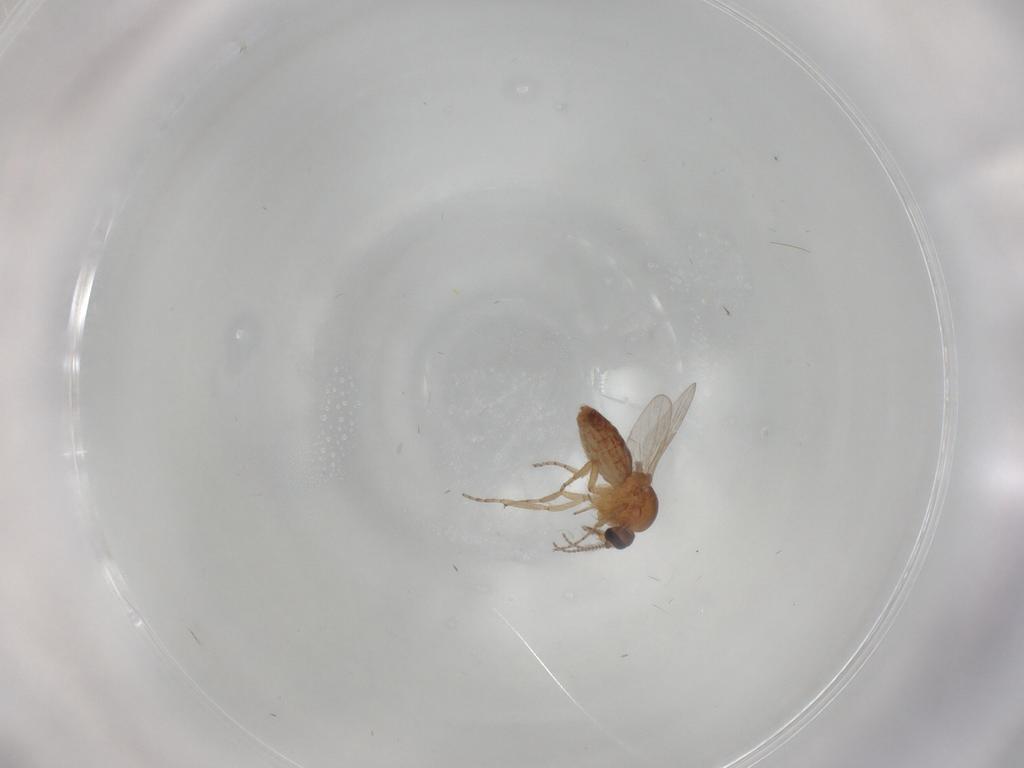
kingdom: Animalia
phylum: Arthropoda
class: Insecta
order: Diptera
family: Ceratopogonidae
